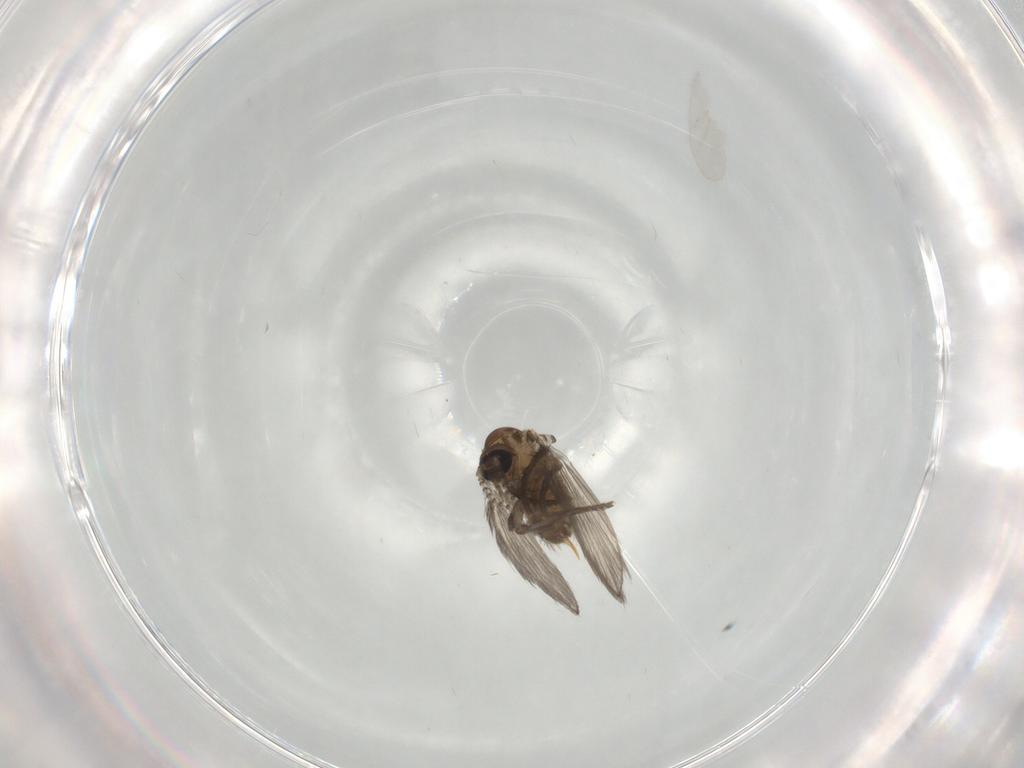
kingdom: Animalia
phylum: Arthropoda
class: Insecta
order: Diptera
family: Psychodidae
